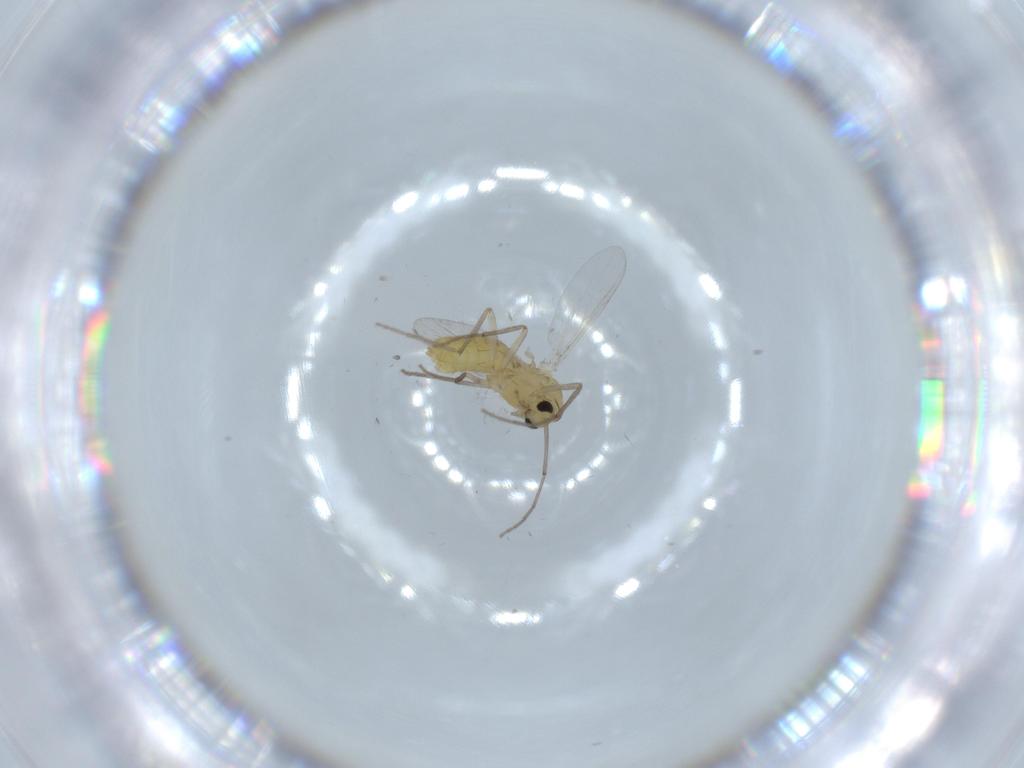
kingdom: Animalia
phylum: Arthropoda
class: Insecta
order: Diptera
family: Chironomidae
